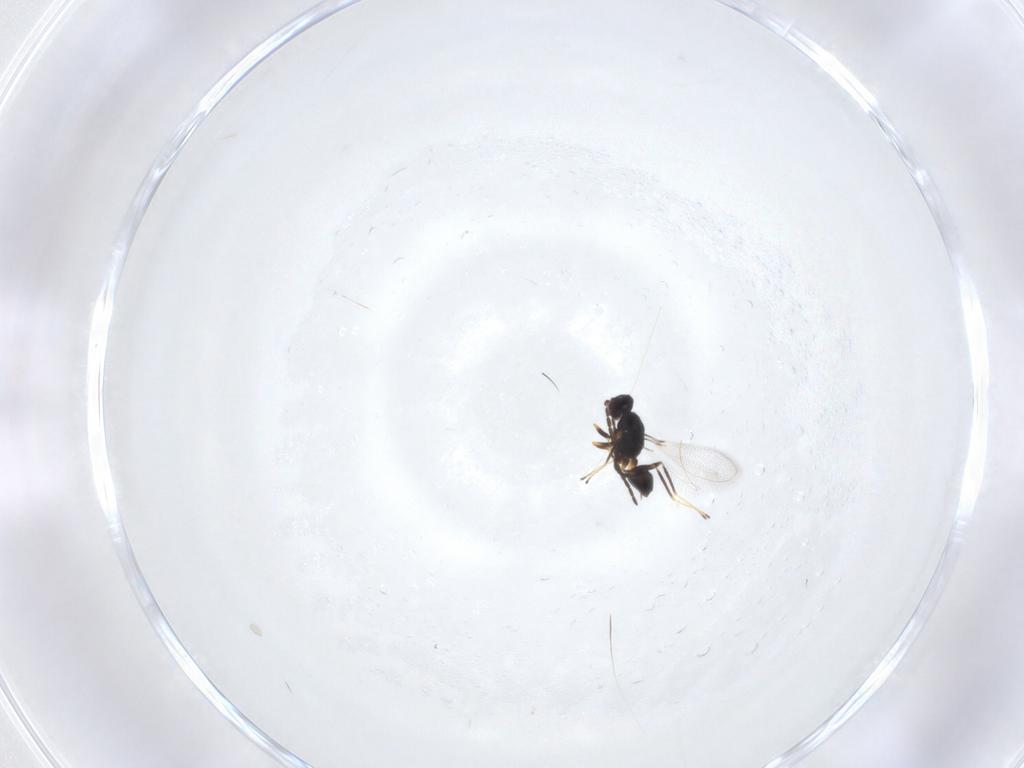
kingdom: Animalia
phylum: Arthropoda
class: Insecta
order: Hymenoptera
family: Mymaridae
